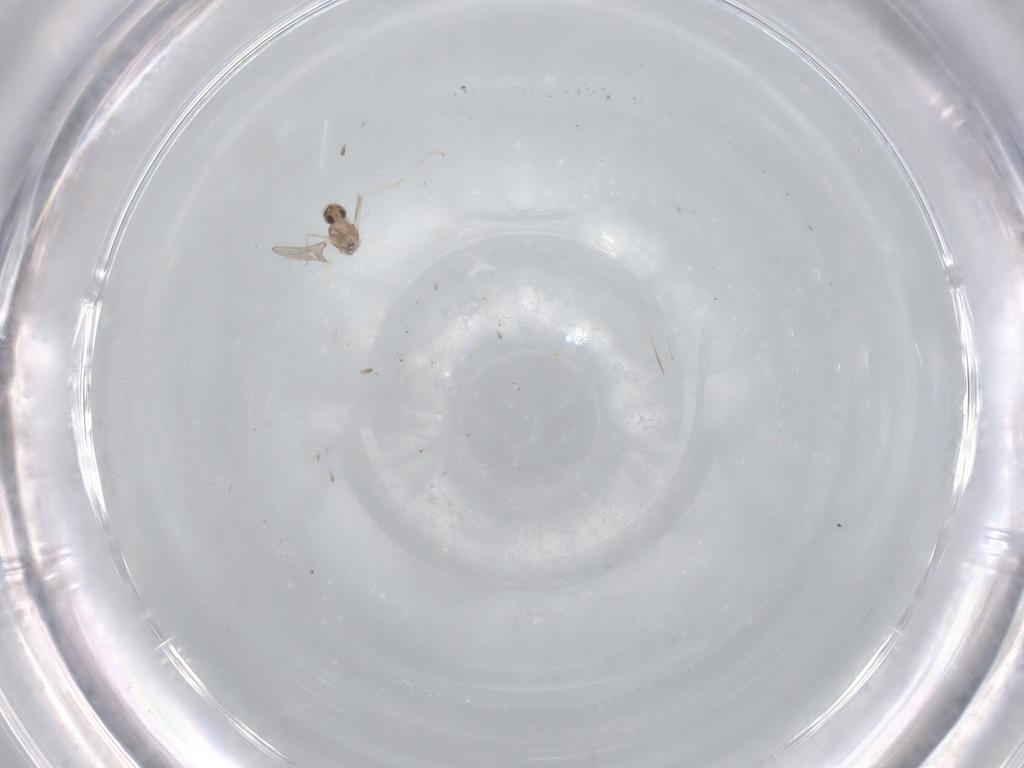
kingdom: Animalia
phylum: Arthropoda
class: Insecta
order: Diptera
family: Cecidomyiidae
